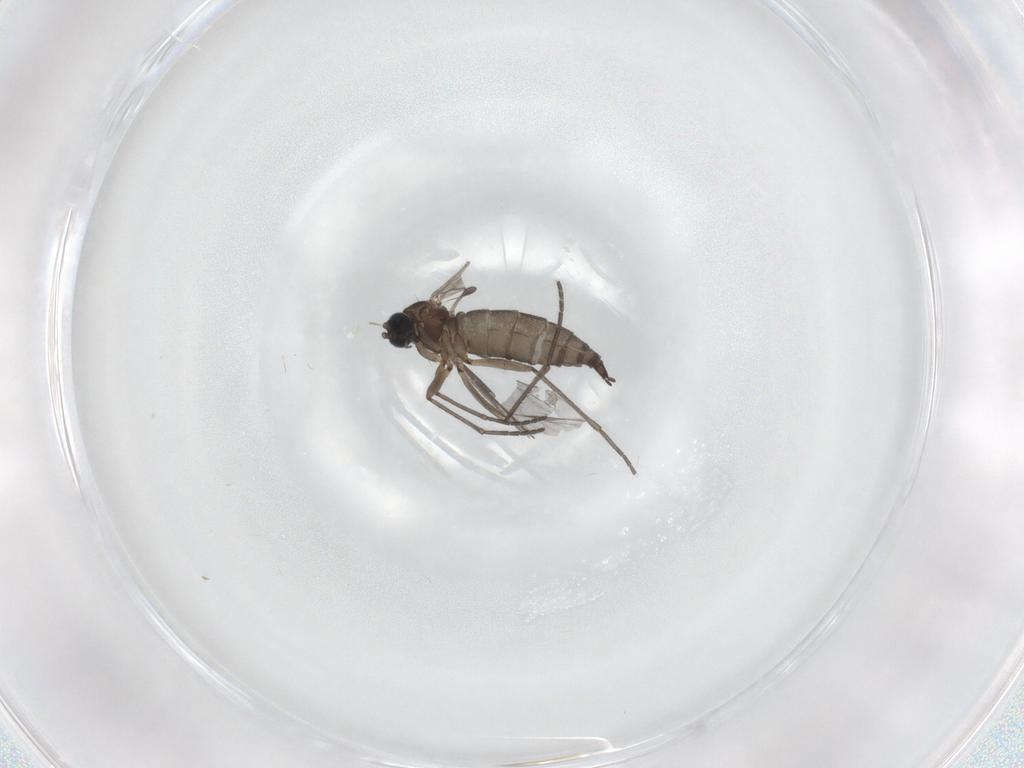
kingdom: Animalia
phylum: Arthropoda
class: Insecta
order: Diptera
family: Sciaridae
